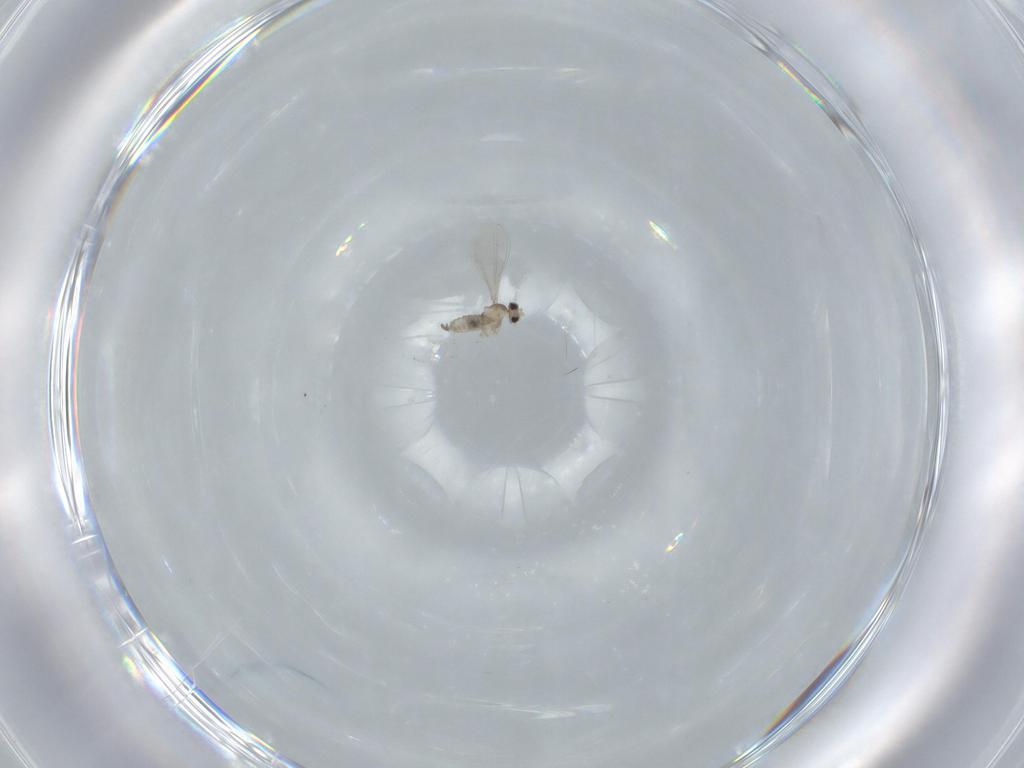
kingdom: Animalia
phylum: Arthropoda
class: Insecta
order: Diptera
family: Cecidomyiidae
